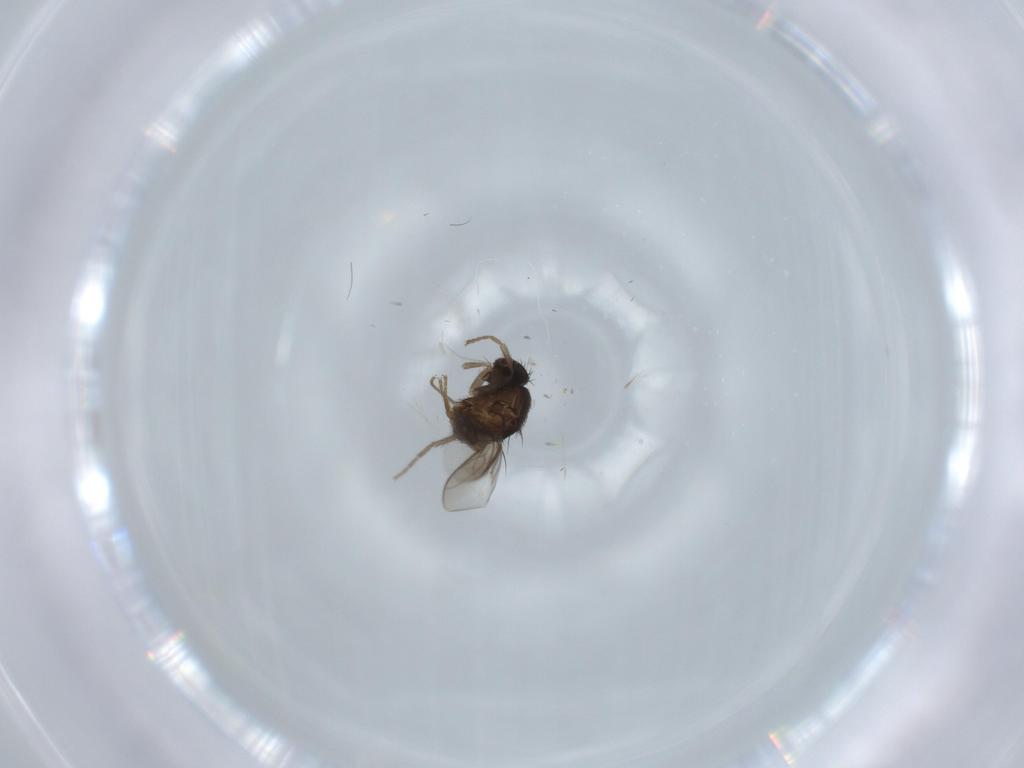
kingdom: Animalia
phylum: Arthropoda
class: Insecta
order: Diptera
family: Sphaeroceridae
